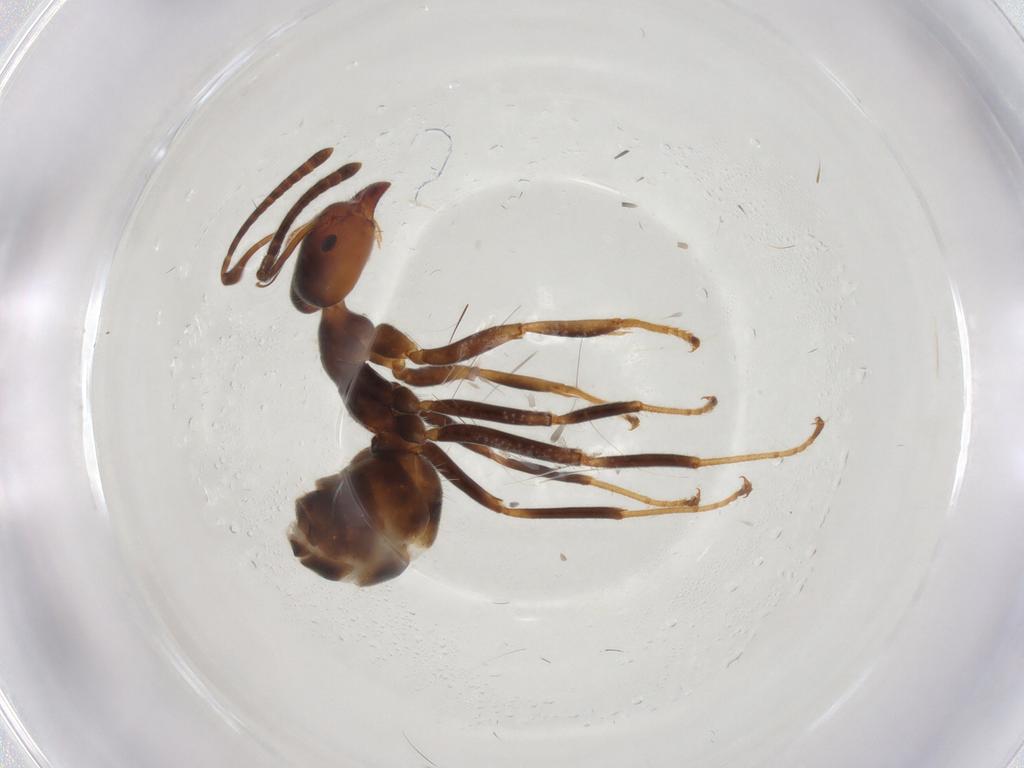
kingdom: Animalia
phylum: Arthropoda
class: Insecta
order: Hymenoptera
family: Formicidae
